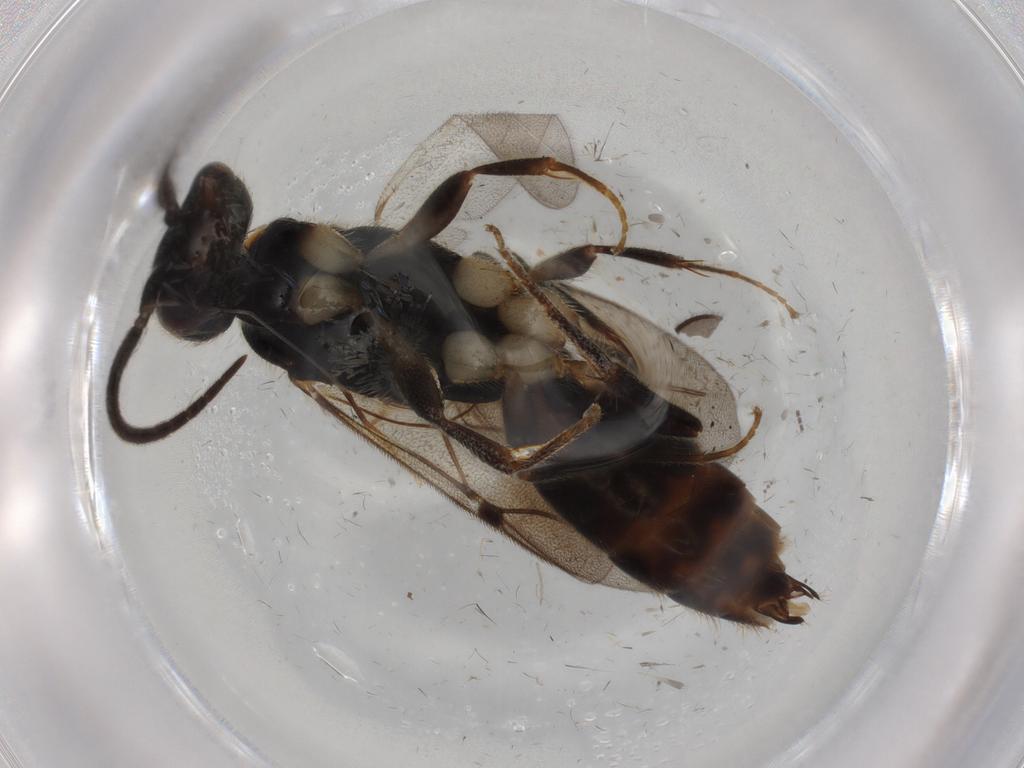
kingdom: Animalia
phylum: Arthropoda
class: Insecta
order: Hymenoptera
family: Bethylidae
